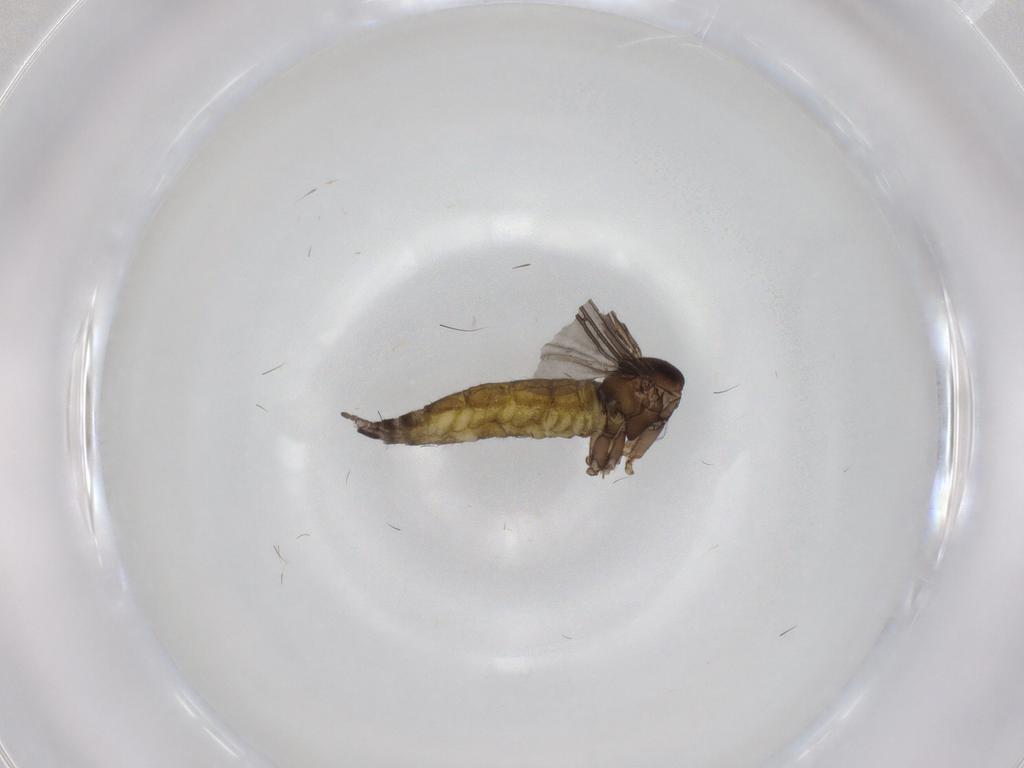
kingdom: Animalia
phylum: Arthropoda
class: Insecta
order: Diptera
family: Sciaridae
